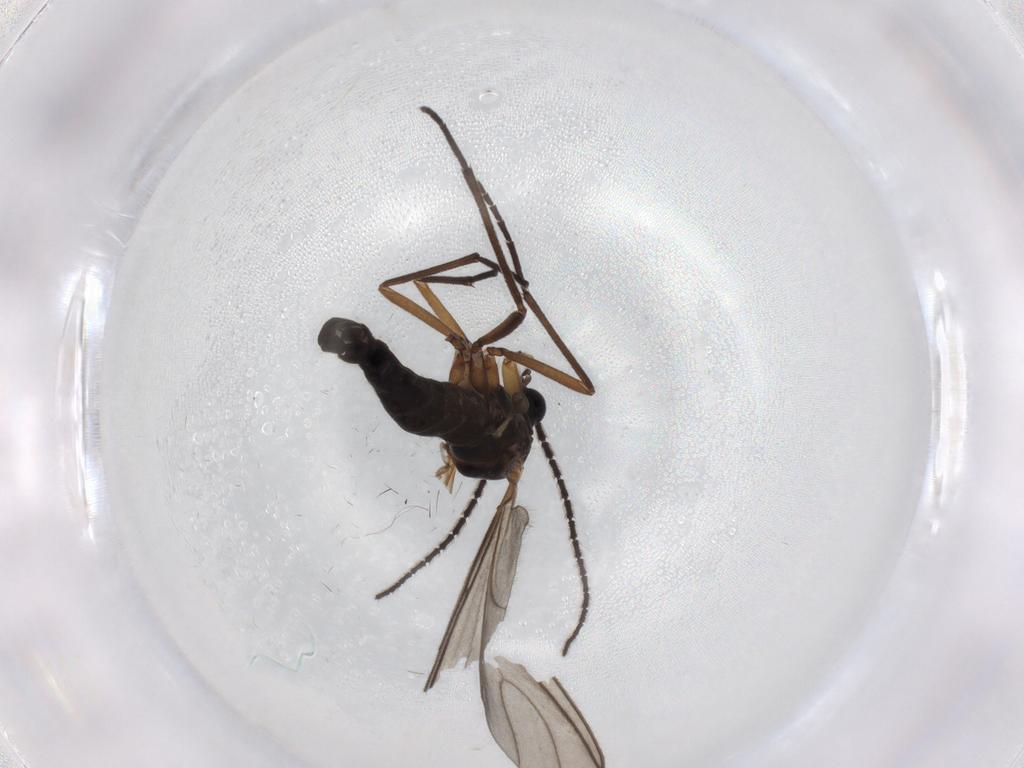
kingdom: Animalia
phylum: Arthropoda
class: Insecta
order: Diptera
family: Sciaridae
